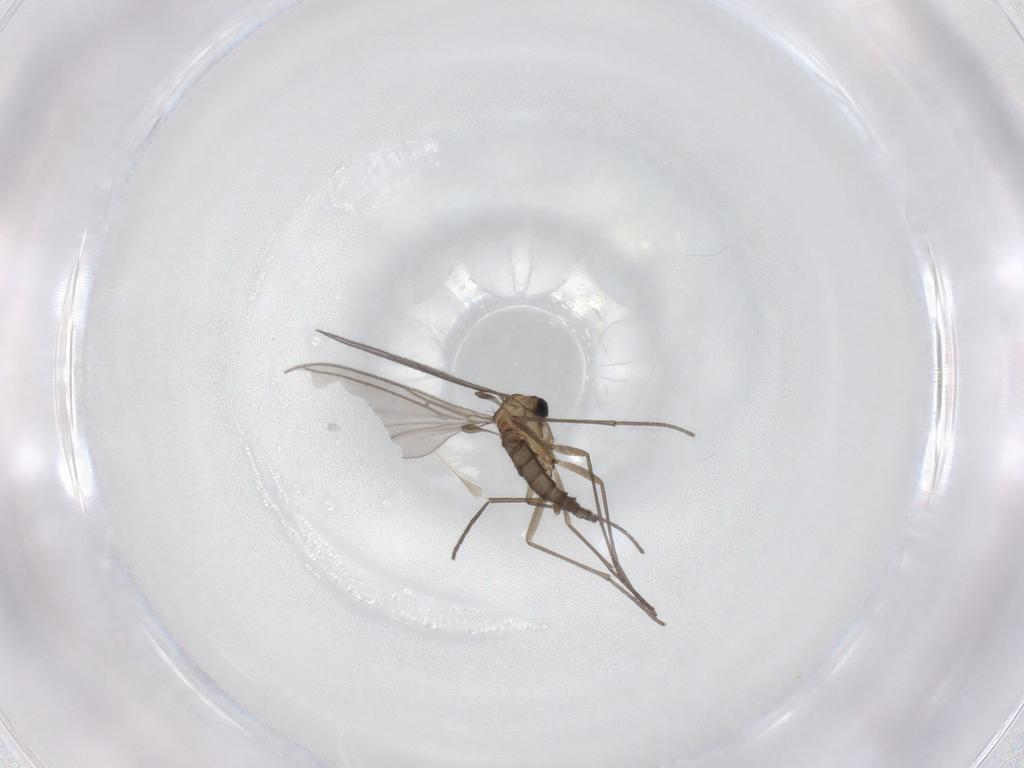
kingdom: Animalia
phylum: Arthropoda
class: Insecta
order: Diptera
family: Sciaridae
